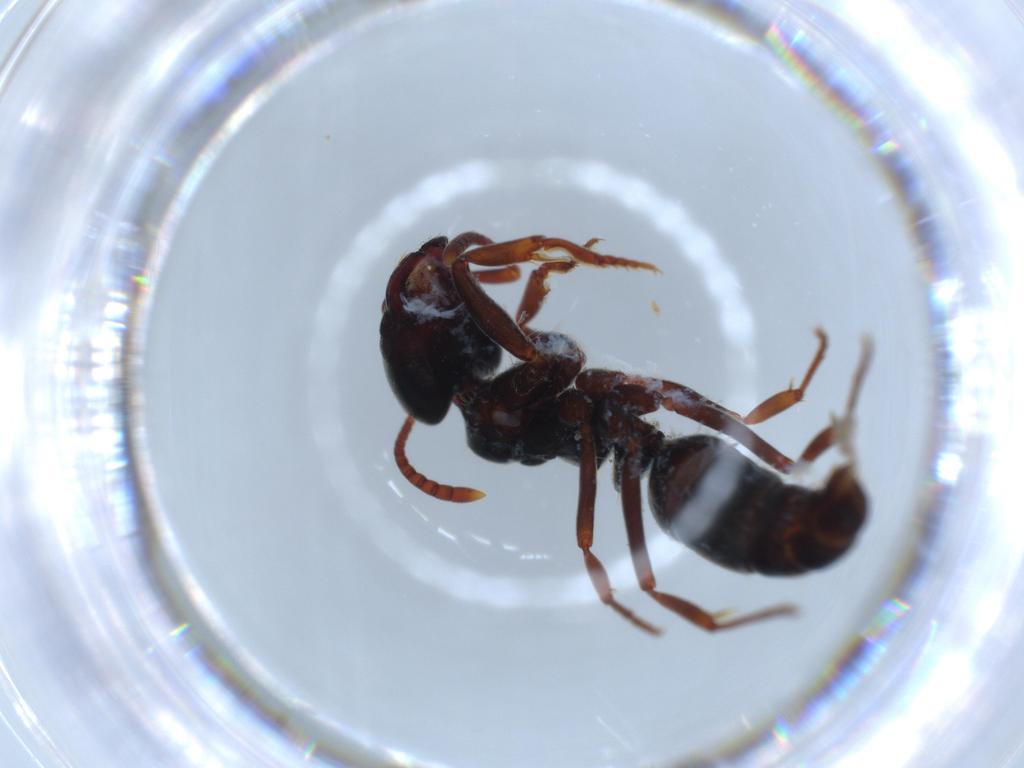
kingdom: Animalia
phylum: Arthropoda
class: Insecta
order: Hymenoptera
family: Formicidae
